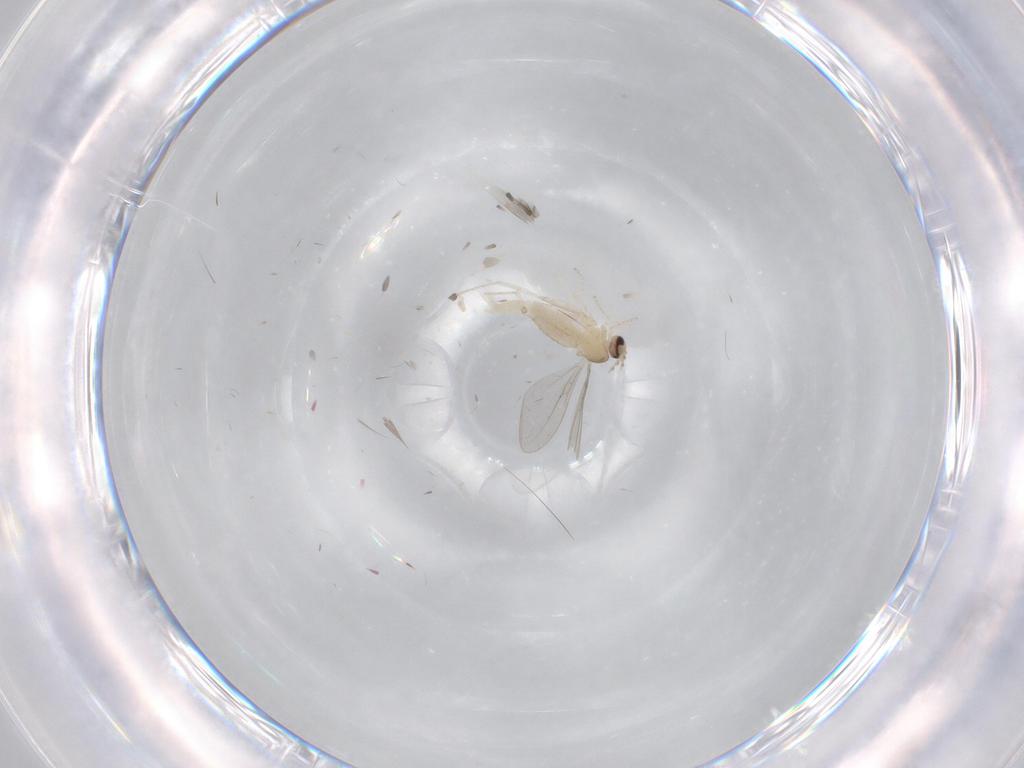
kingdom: Animalia
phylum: Arthropoda
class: Insecta
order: Diptera
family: Cecidomyiidae
